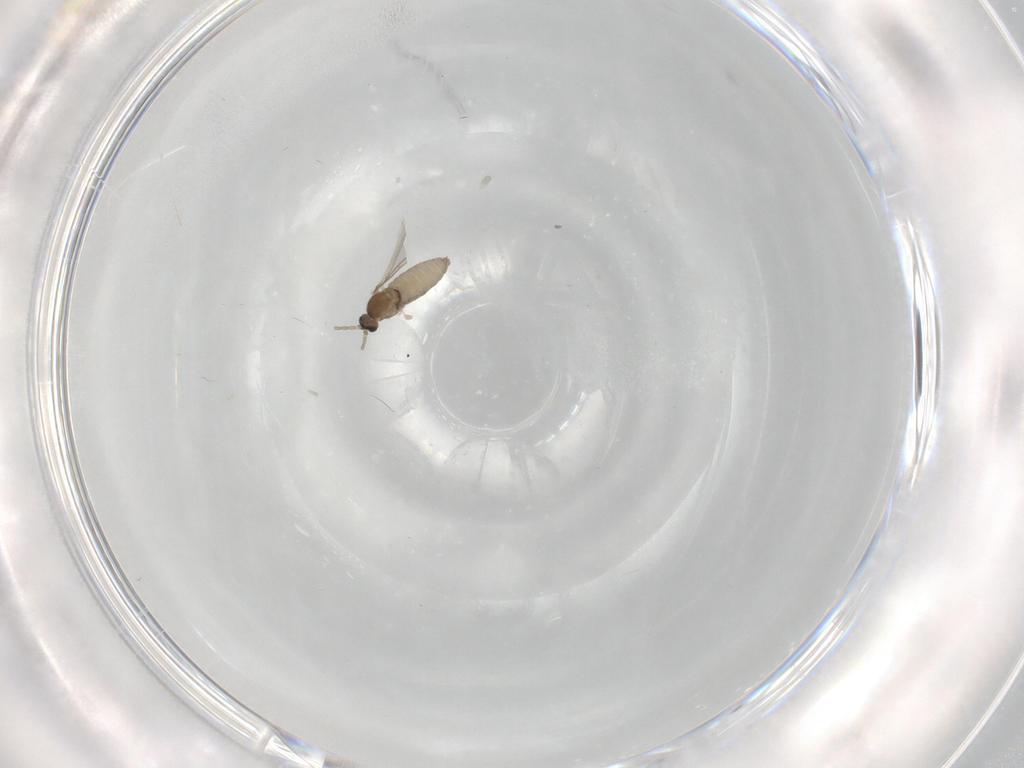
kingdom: Animalia
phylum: Arthropoda
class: Insecta
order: Diptera
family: Cecidomyiidae
